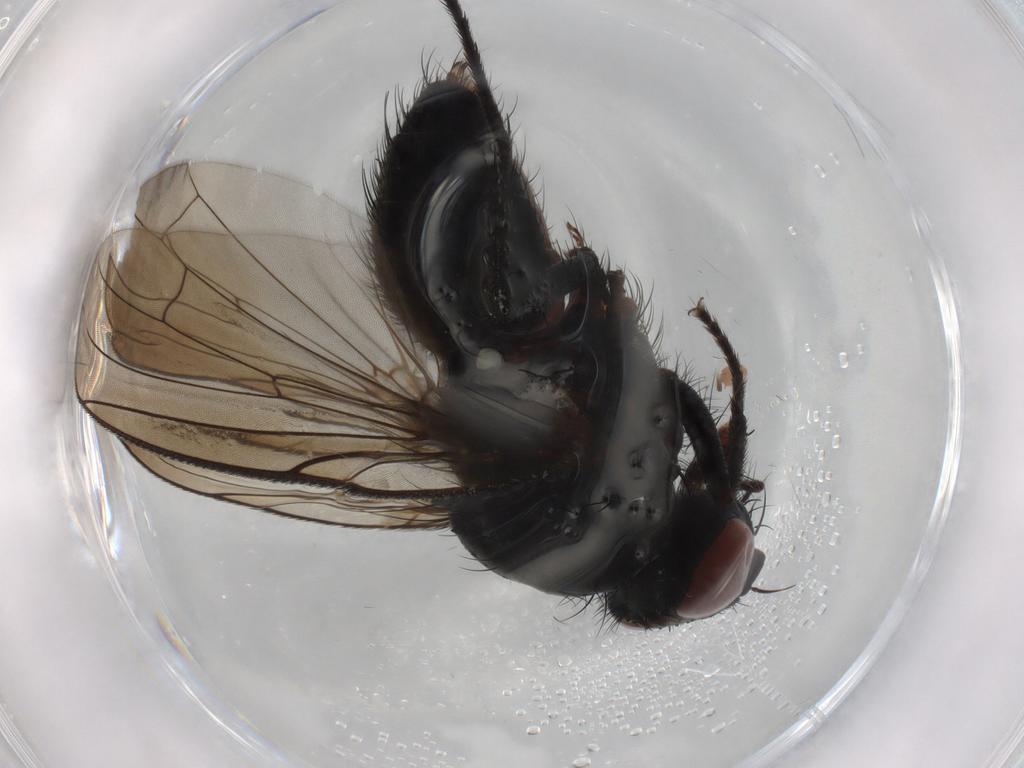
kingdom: Animalia
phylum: Arthropoda
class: Insecta
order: Diptera
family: Anthomyiidae
